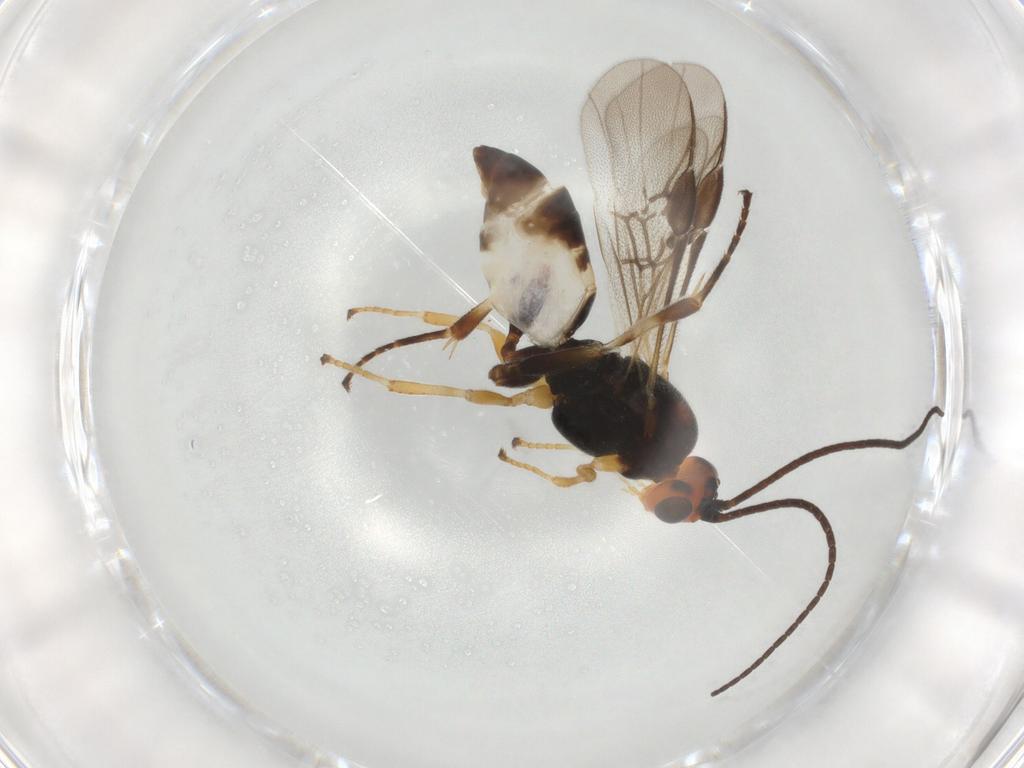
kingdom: Animalia
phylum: Arthropoda
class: Insecta
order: Hymenoptera
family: Braconidae
